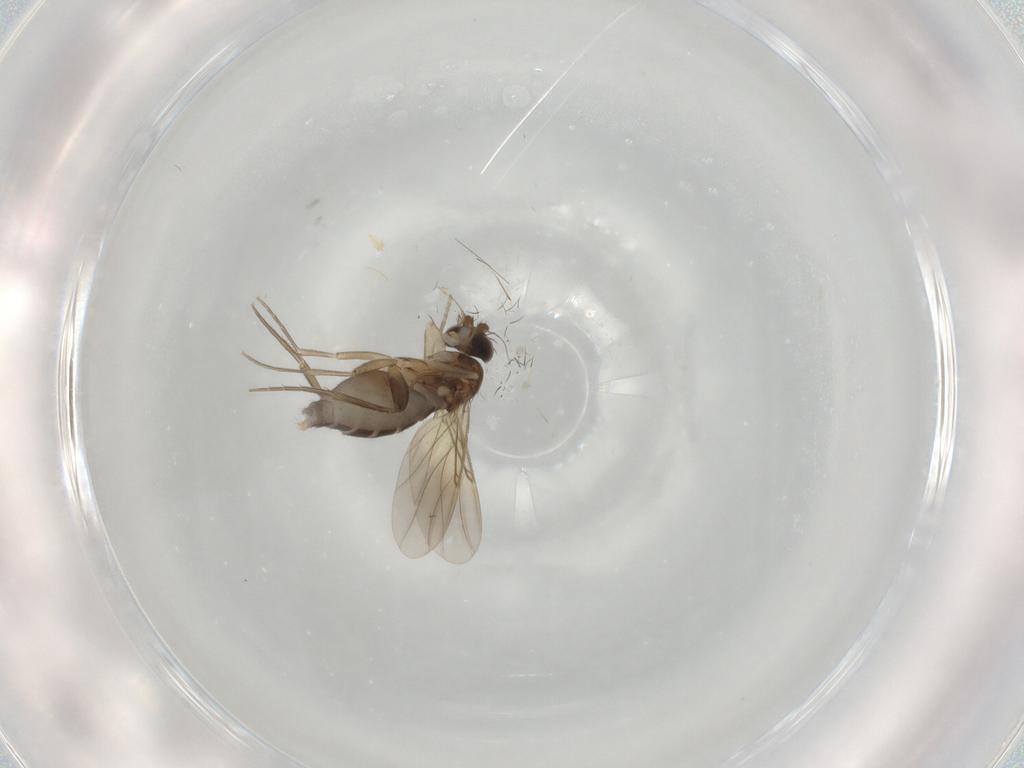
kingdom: Animalia
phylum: Arthropoda
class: Insecta
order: Diptera
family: Phoridae
